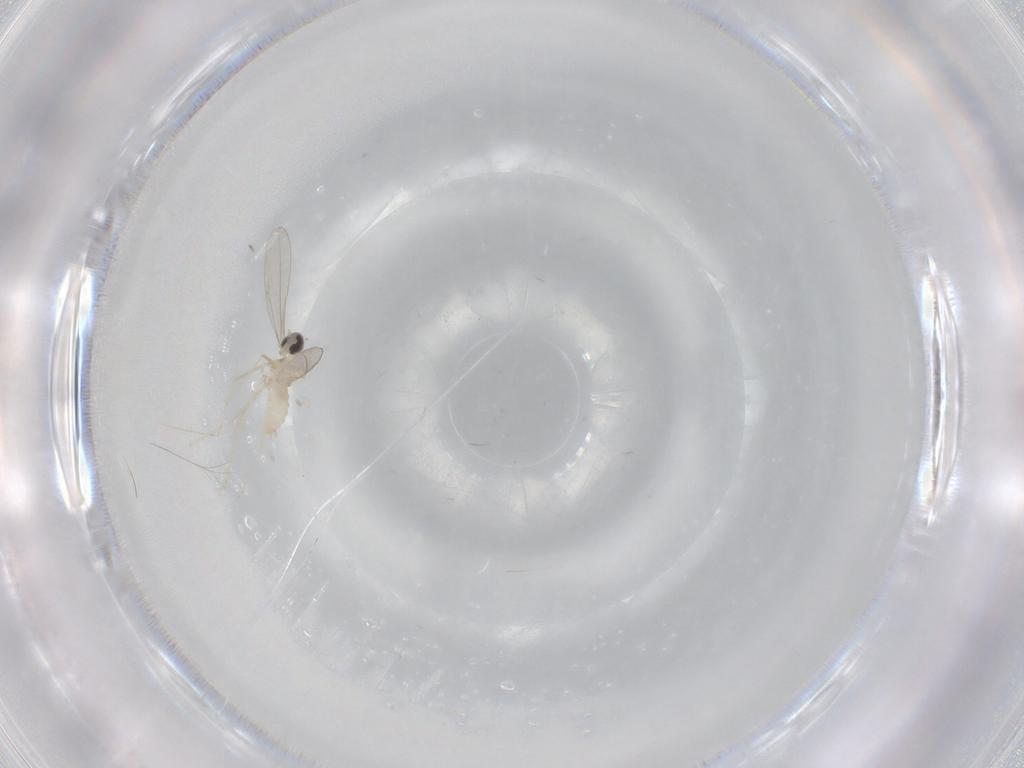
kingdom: Animalia
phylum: Arthropoda
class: Insecta
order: Diptera
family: Cecidomyiidae
